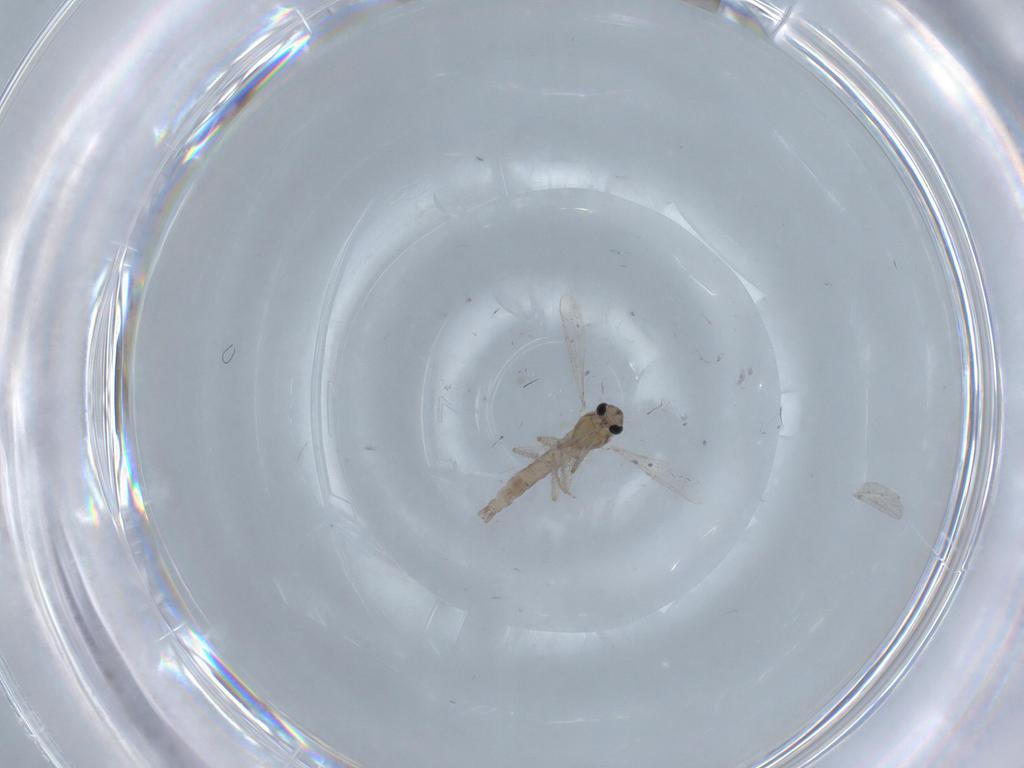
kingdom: Animalia
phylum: Arthropoda
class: Insecta
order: Diptera
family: Chironomidae
